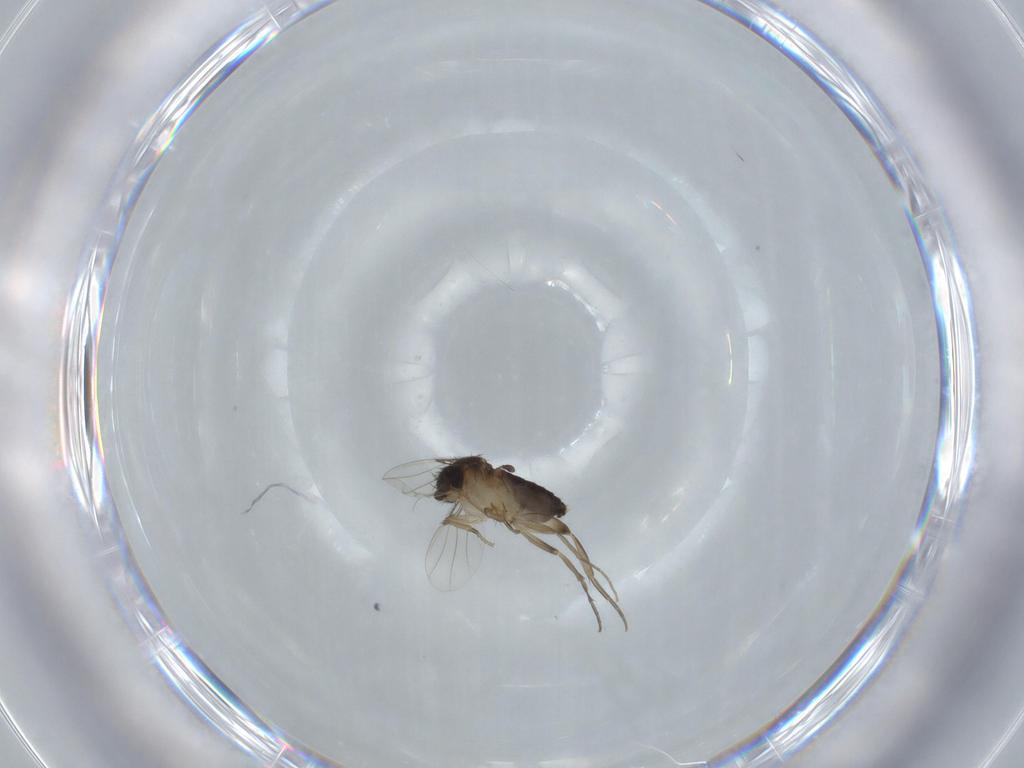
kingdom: Animalia
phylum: Arthropoda
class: Insecta
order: Diptera
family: Phoridae
